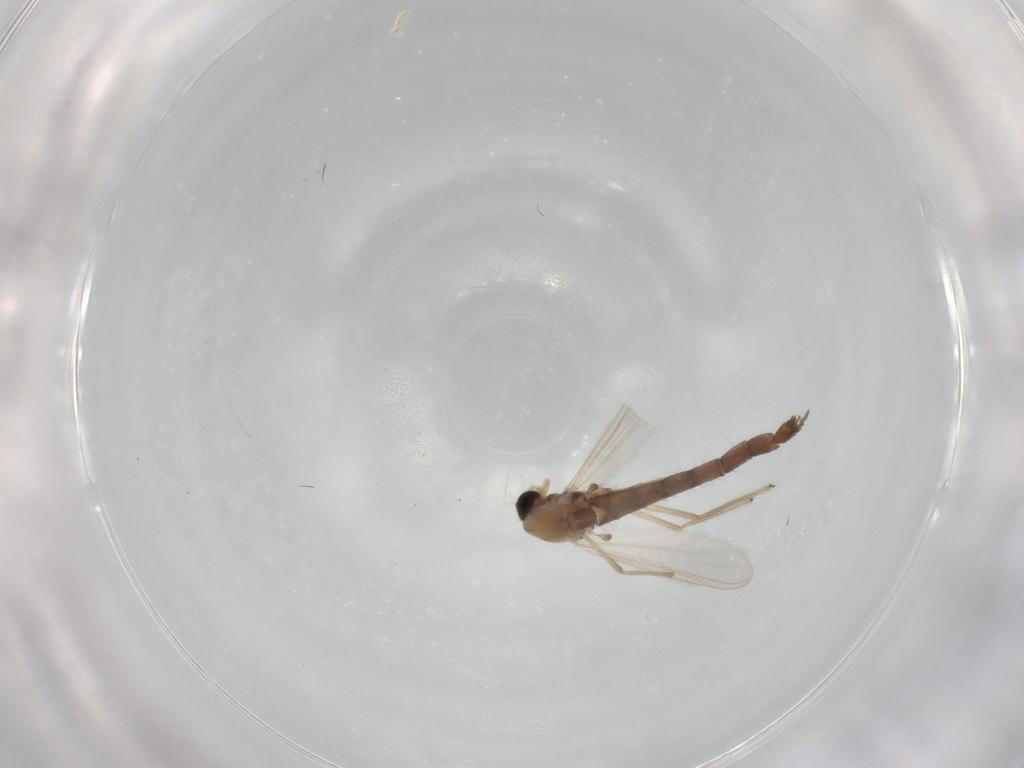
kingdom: Animalia
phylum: Arthropoda
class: Insecta
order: Diptera
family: Chironomidae
